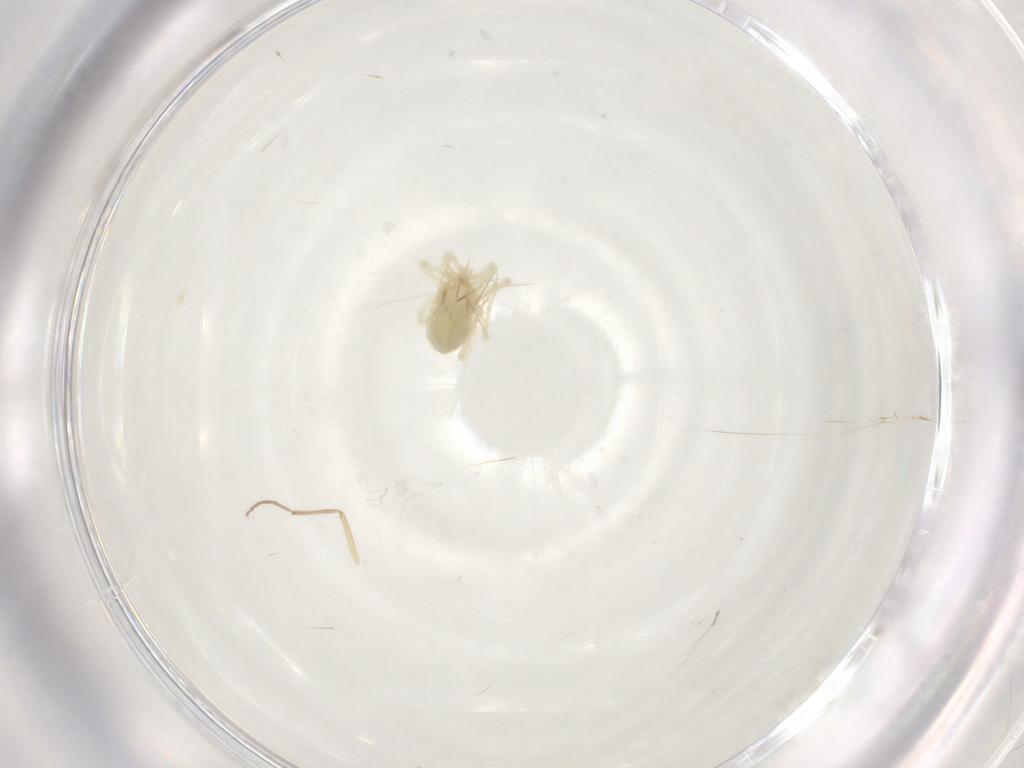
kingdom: Animalia
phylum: Arthropoda
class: Arachnida
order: Trombidiformes
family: Anystidae
